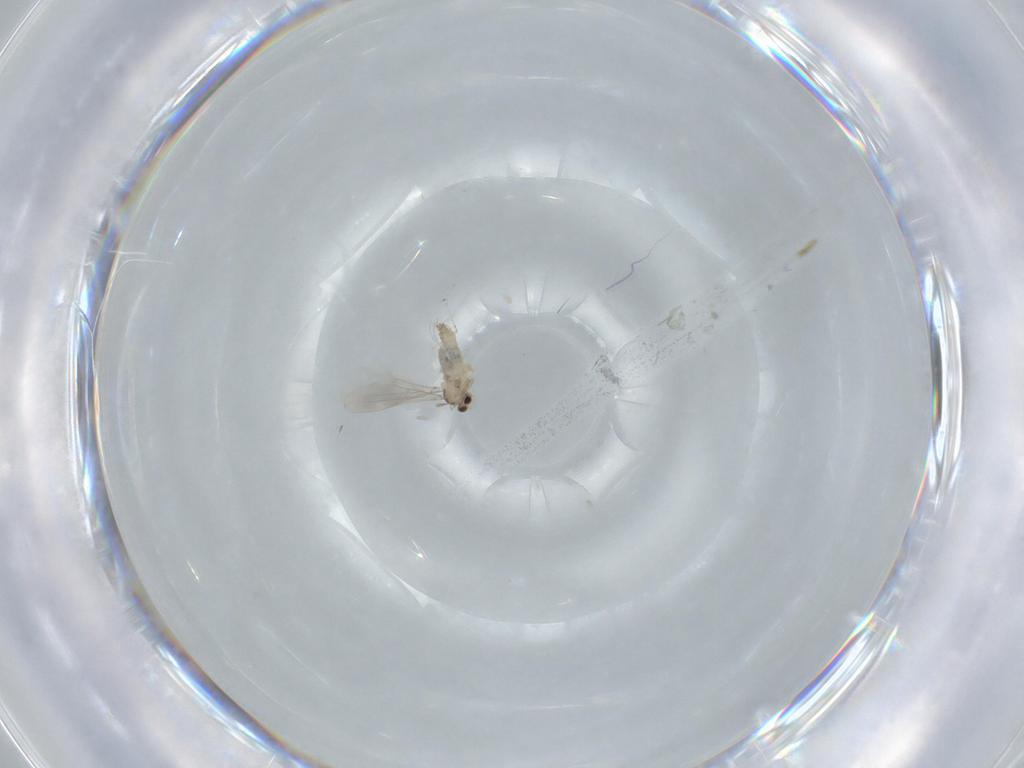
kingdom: Animalia
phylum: Arthropoda
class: Insecta
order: Diptera
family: Cecidomyiidae
